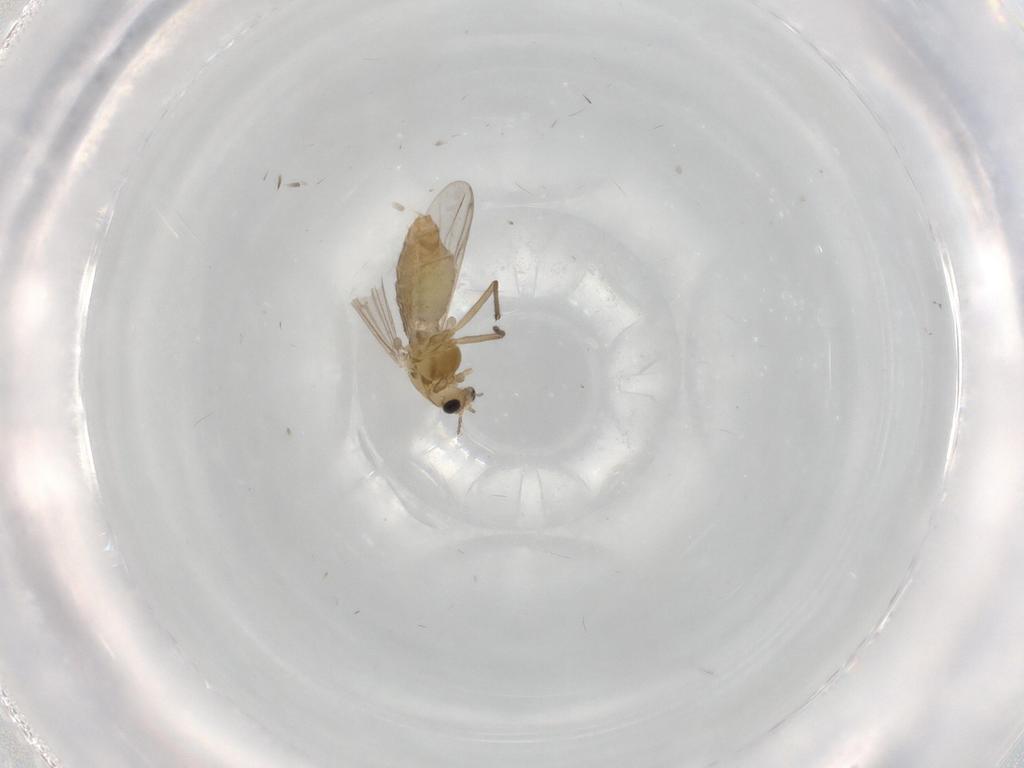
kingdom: Animalia
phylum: Arthropoda
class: Insecta
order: Diptera
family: Chironomidae
